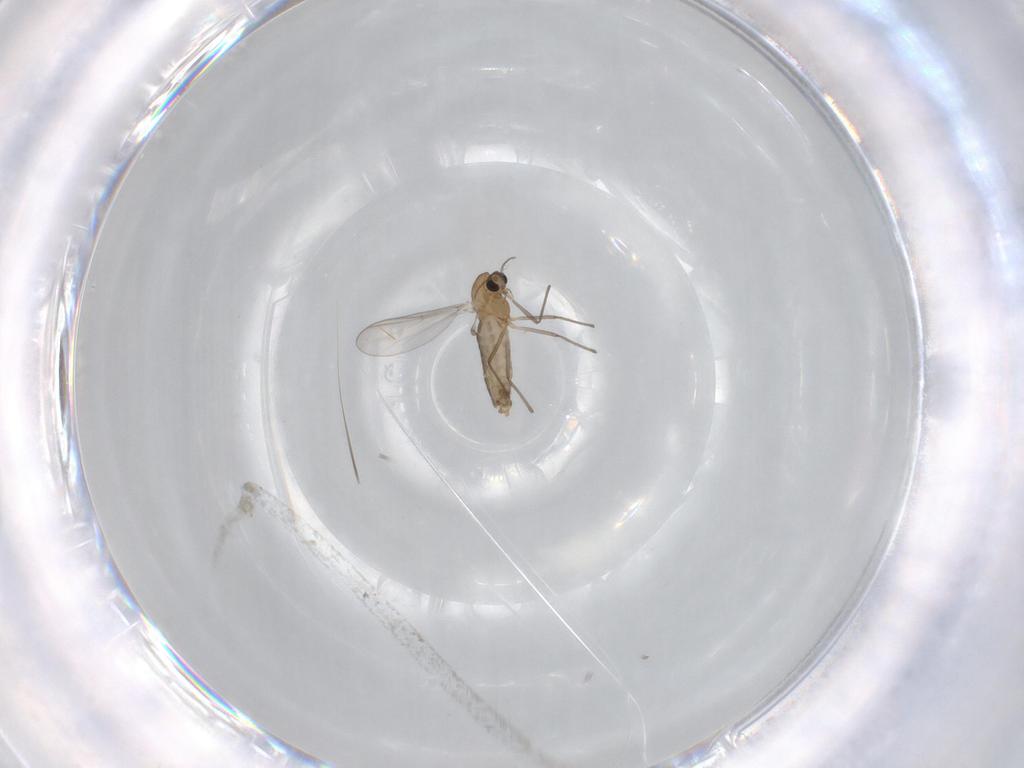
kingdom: Animalia
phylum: Arthropoda
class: Insecta
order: Diptera
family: Chironomidae
